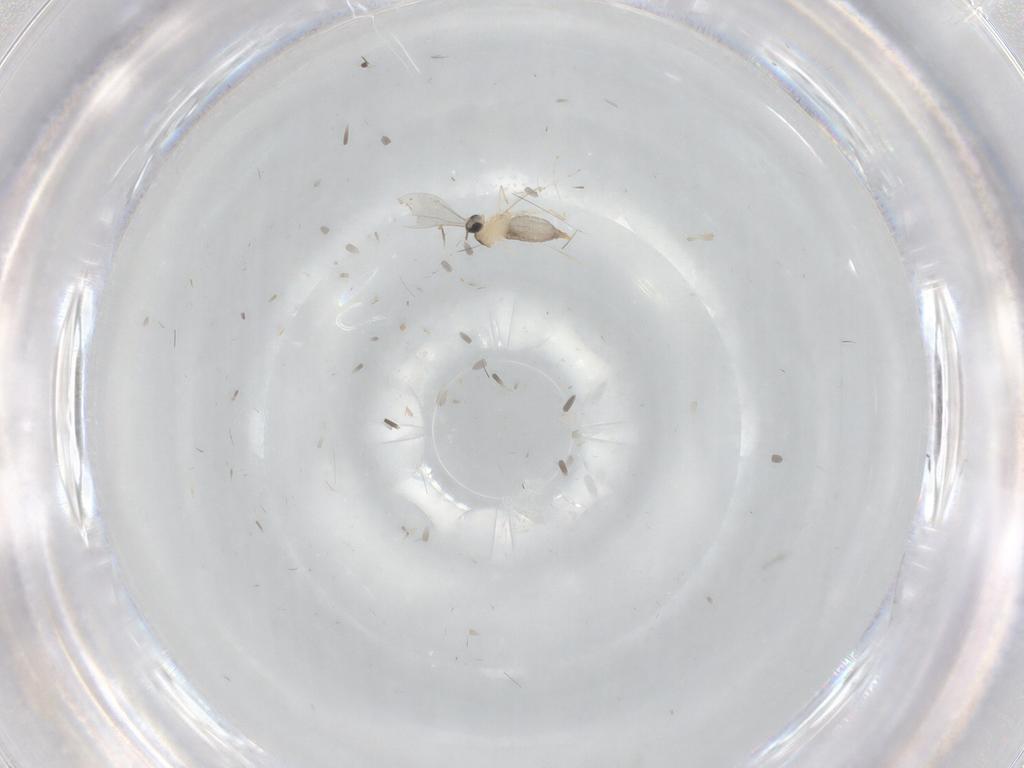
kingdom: Animalia
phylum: Arthropoda
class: Insecta
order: Diptera
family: Cecidomyiidae
